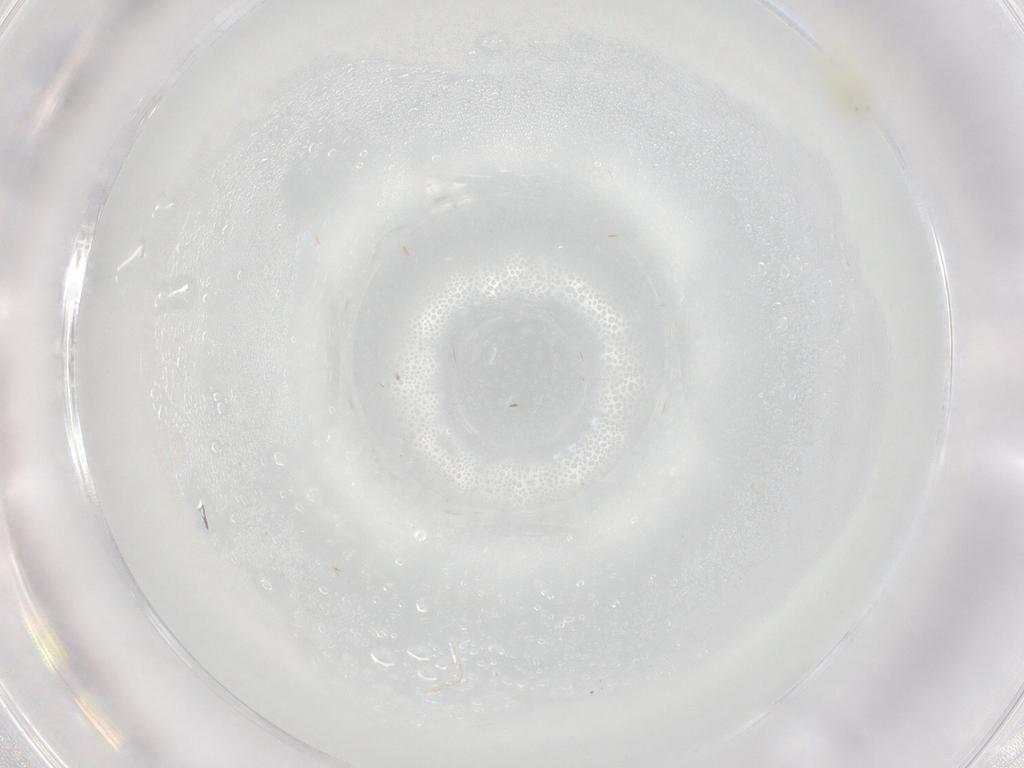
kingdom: Animalia
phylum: Arthropoda
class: Insecta
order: Hemiptera
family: Aleyrodidae
